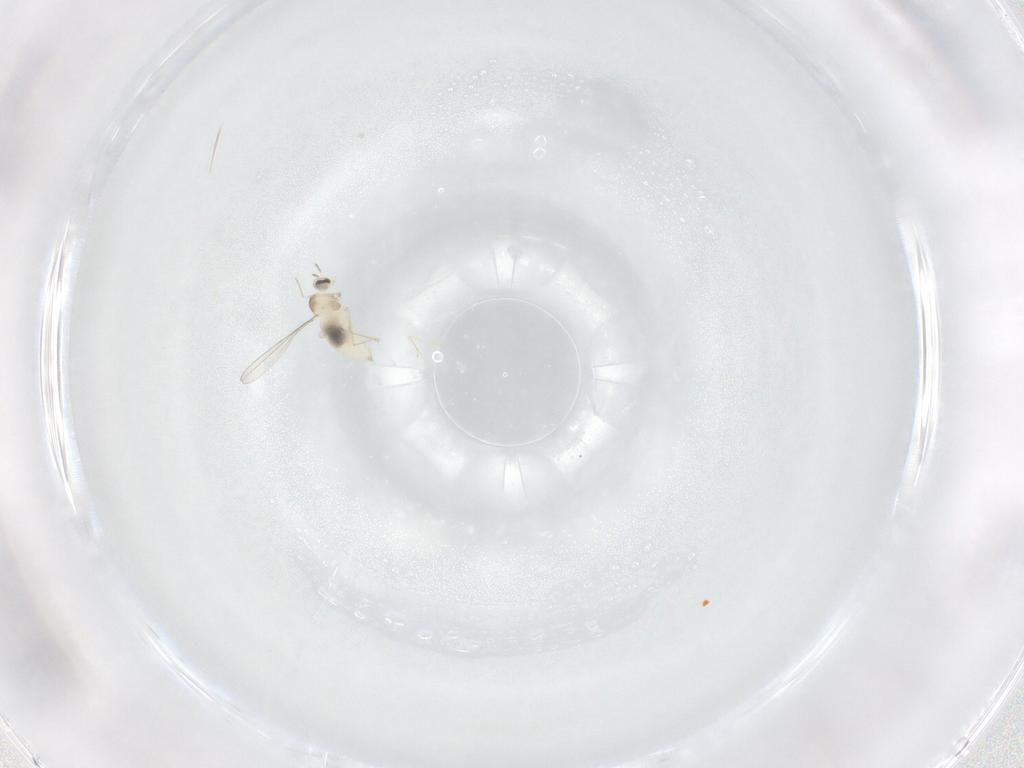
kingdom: Animalia
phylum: Arthropoda
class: Insecta
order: Diptera
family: Cecidomyiidae
